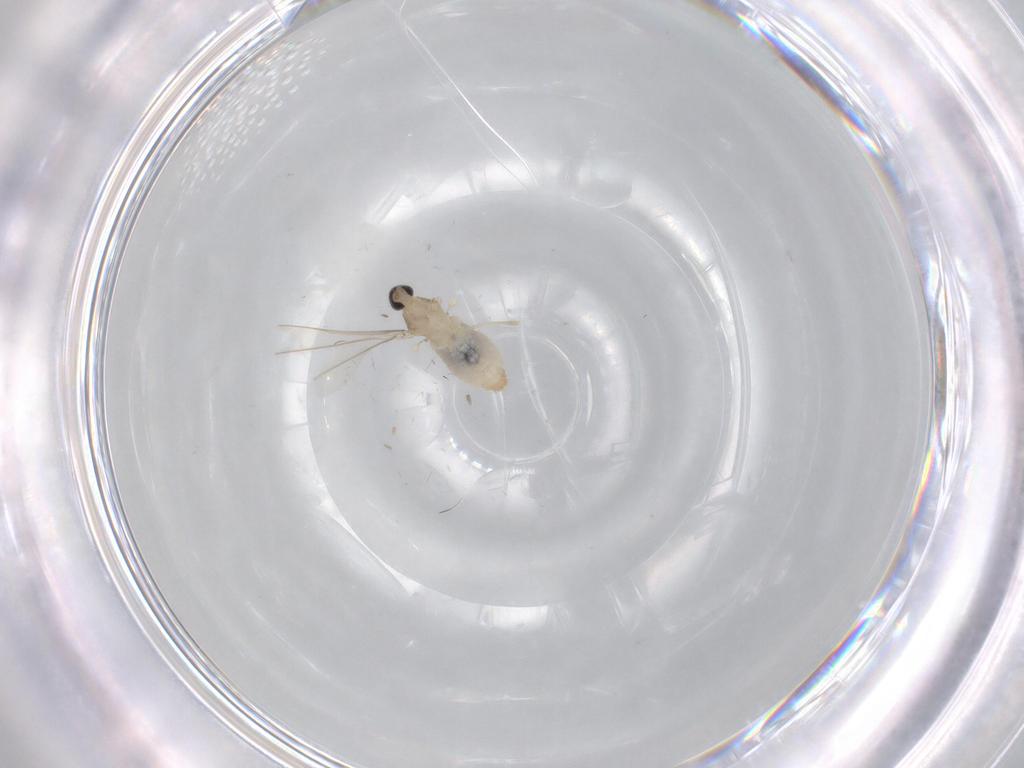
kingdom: Animalia
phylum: Arthropoda
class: Insecta
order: Diptera
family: Cecidomyiidae
